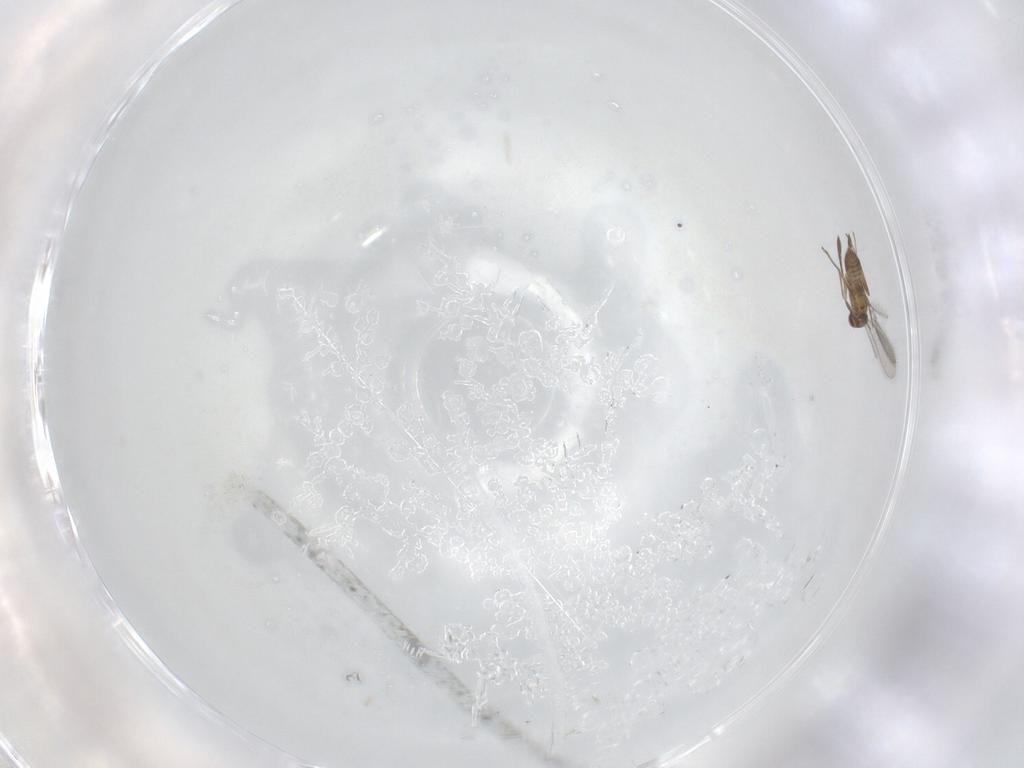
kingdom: Animalia
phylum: Arthropoda
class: Insecta
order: Hymenoptera
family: Mymaridae
